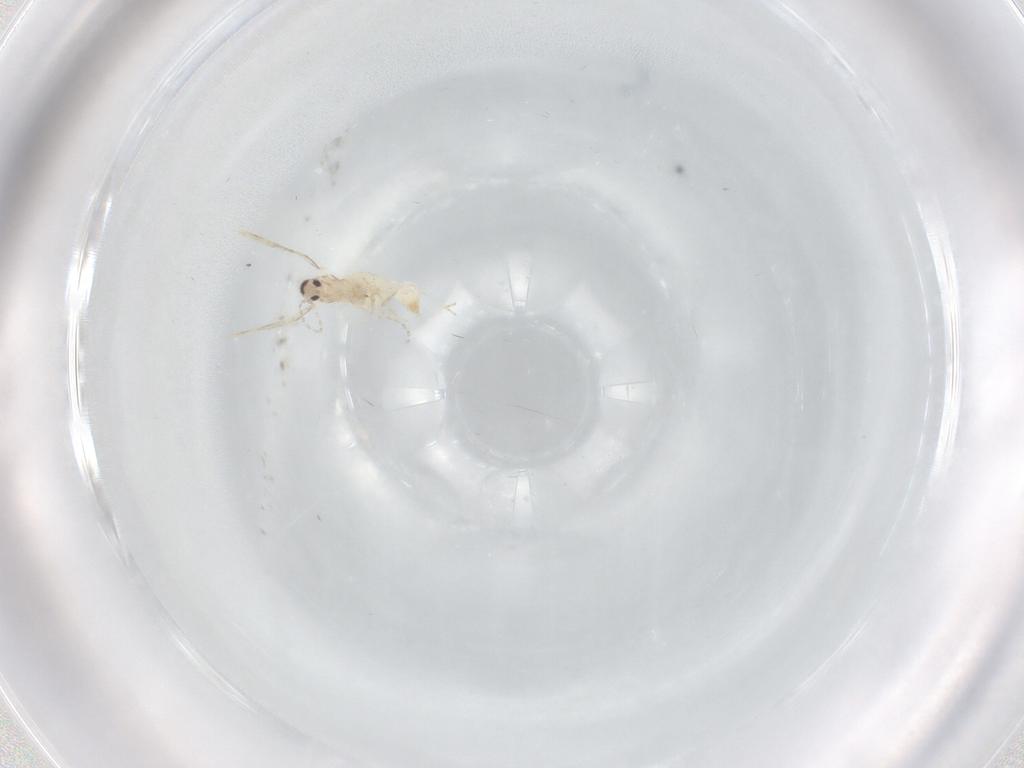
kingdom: Animalia
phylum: Arthropoda
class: Insecta
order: Diptera
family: Cecidomyiidae
